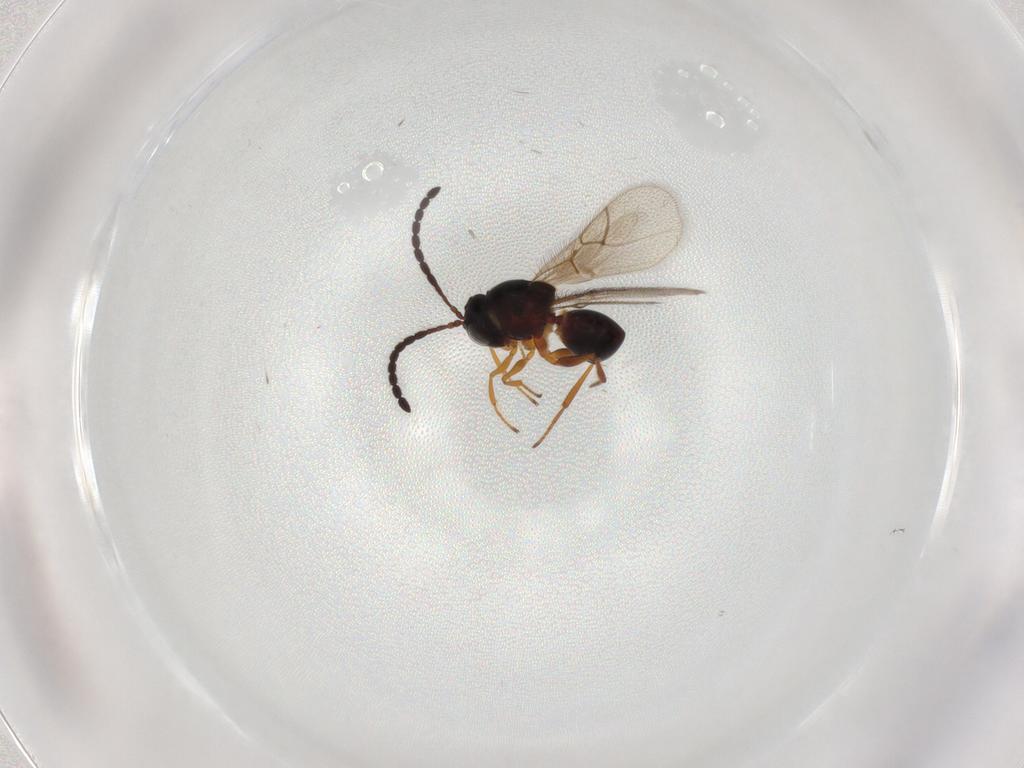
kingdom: Animalia
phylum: Arthropoda
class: Insecta
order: Hymenoptera
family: Figitidae
